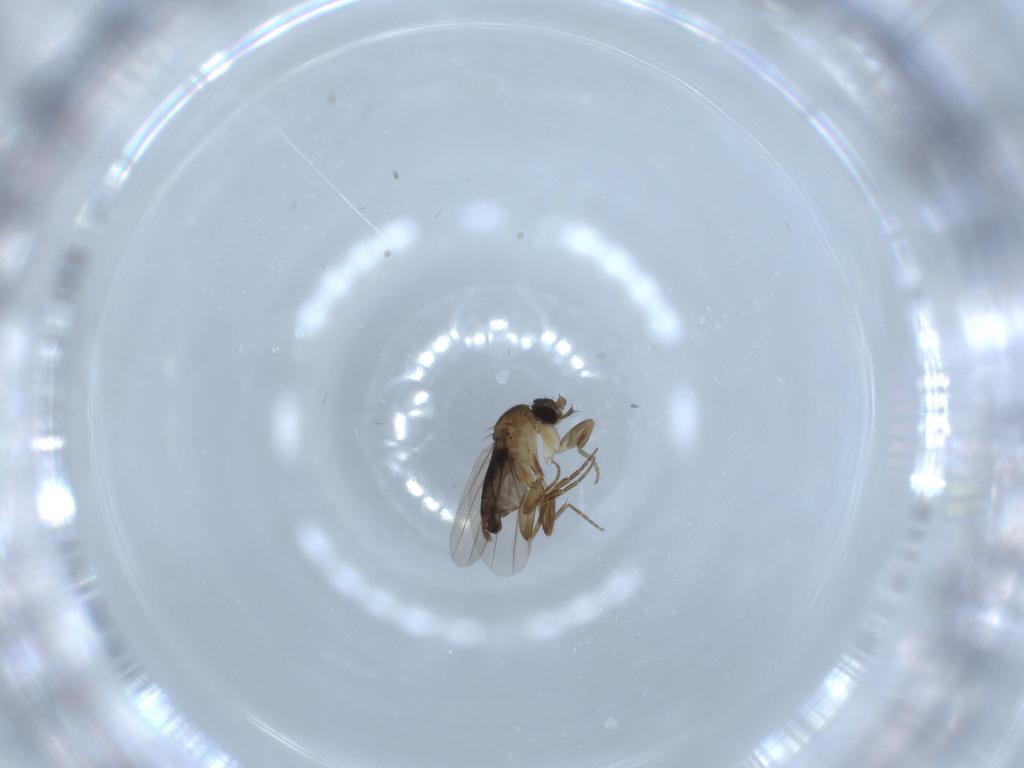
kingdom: Animalia
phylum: Arthropoda
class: Insecta
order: Diptera
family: Phoridae
